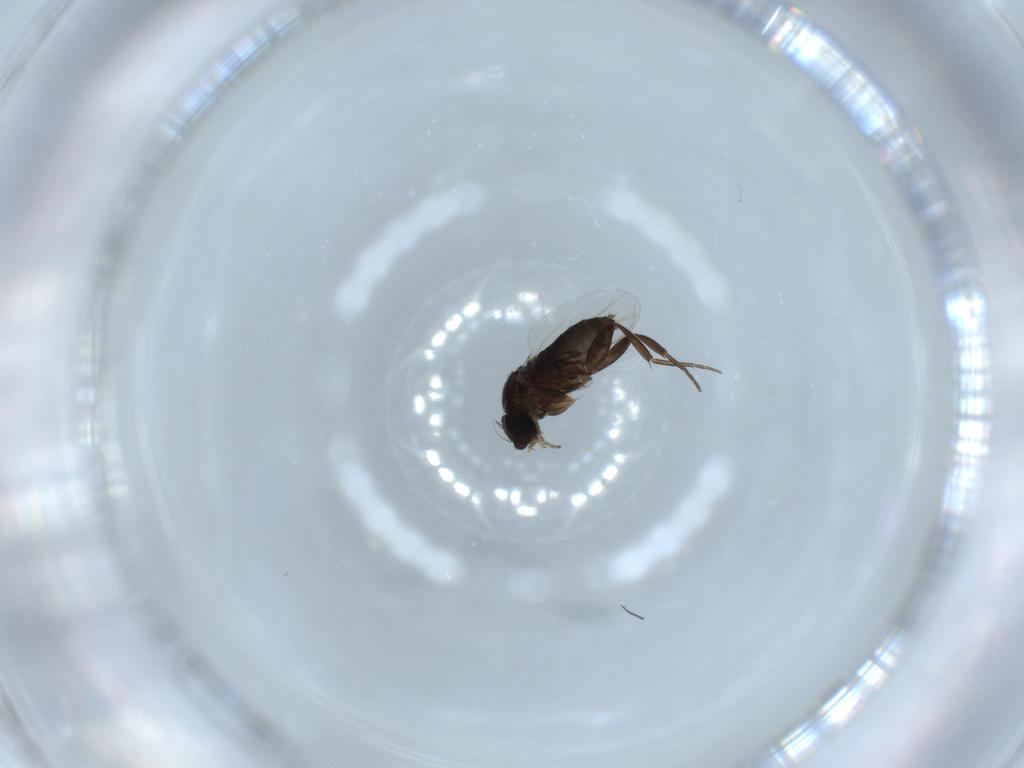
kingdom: Animalia
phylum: Arthropoda
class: Insecta
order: Diptera
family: Phoridae
